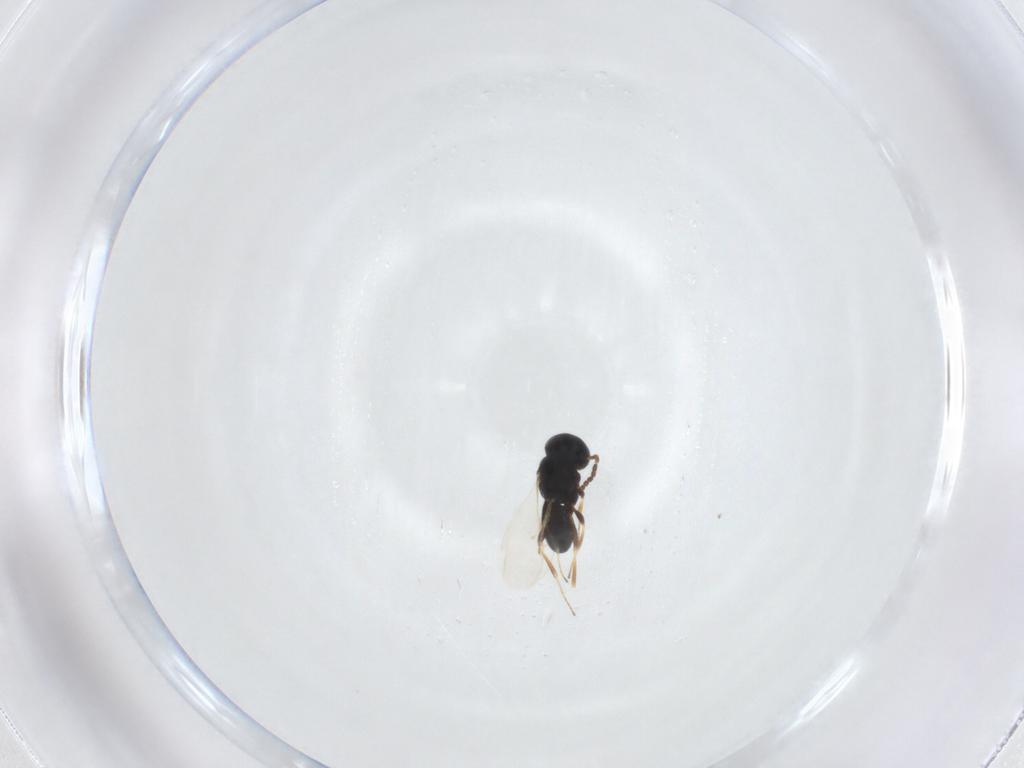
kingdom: Animalia
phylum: Arthropoda
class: Insecta
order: Hymenoptera
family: Scelionidae
